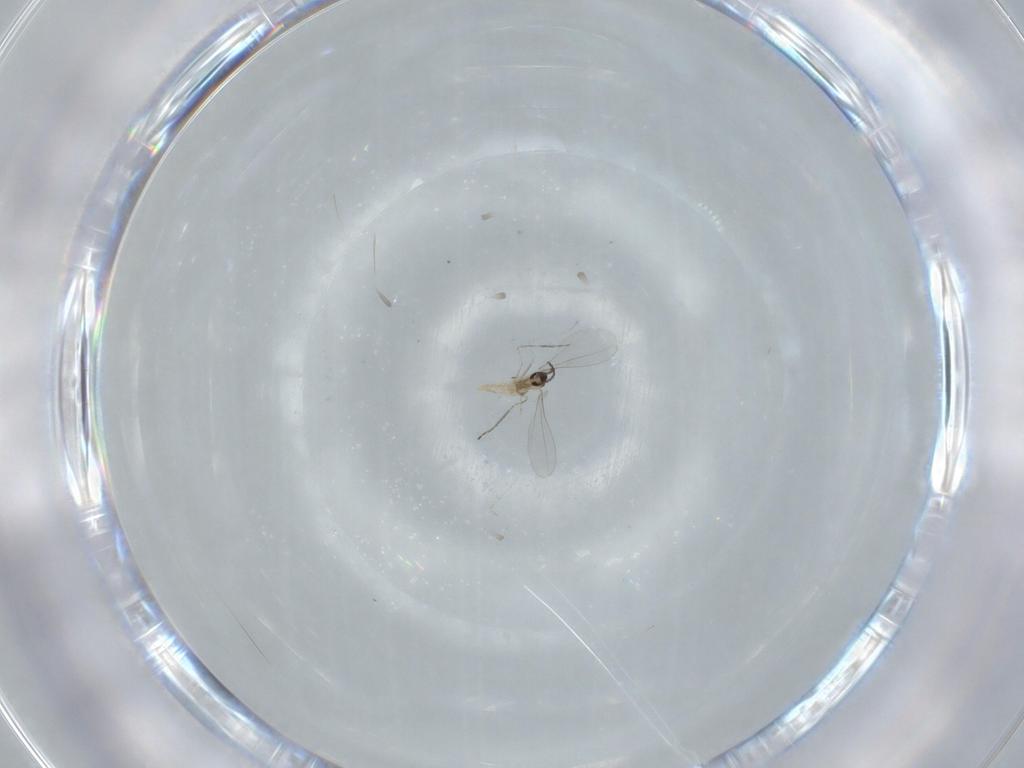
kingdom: Animalia
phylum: Arthropoda
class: Insecta
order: Diptera
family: Cecidomyiidae
